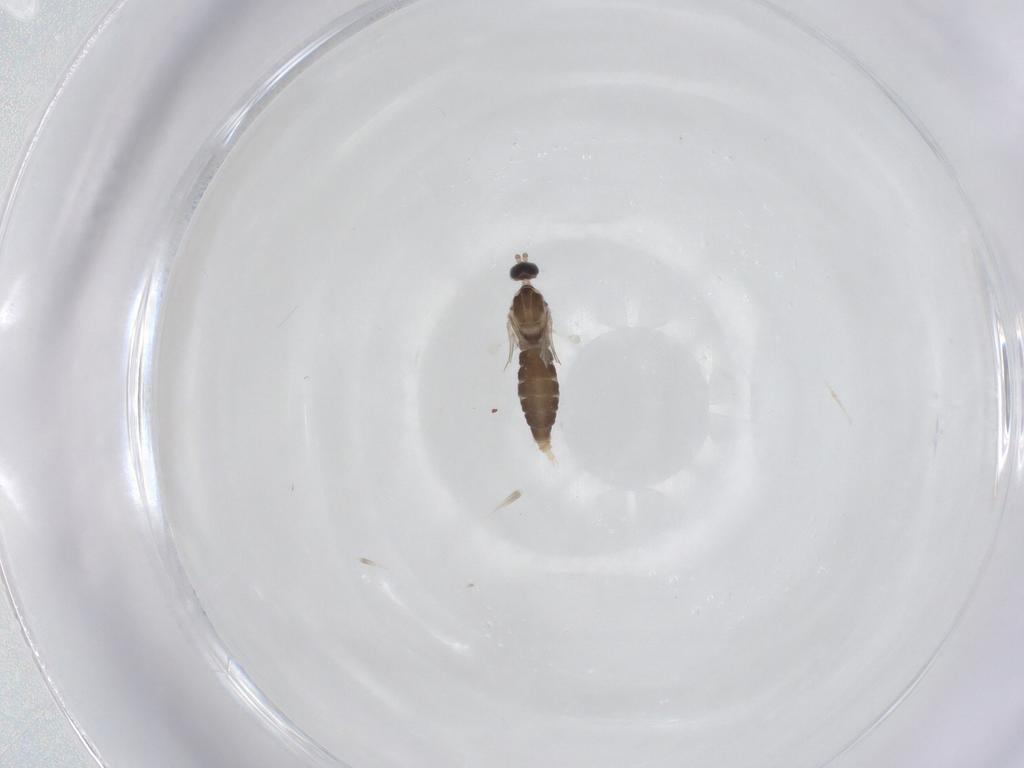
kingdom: Animalia
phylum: Arthropoda
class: Insecta
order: Diptera
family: Cecidomyiidae
